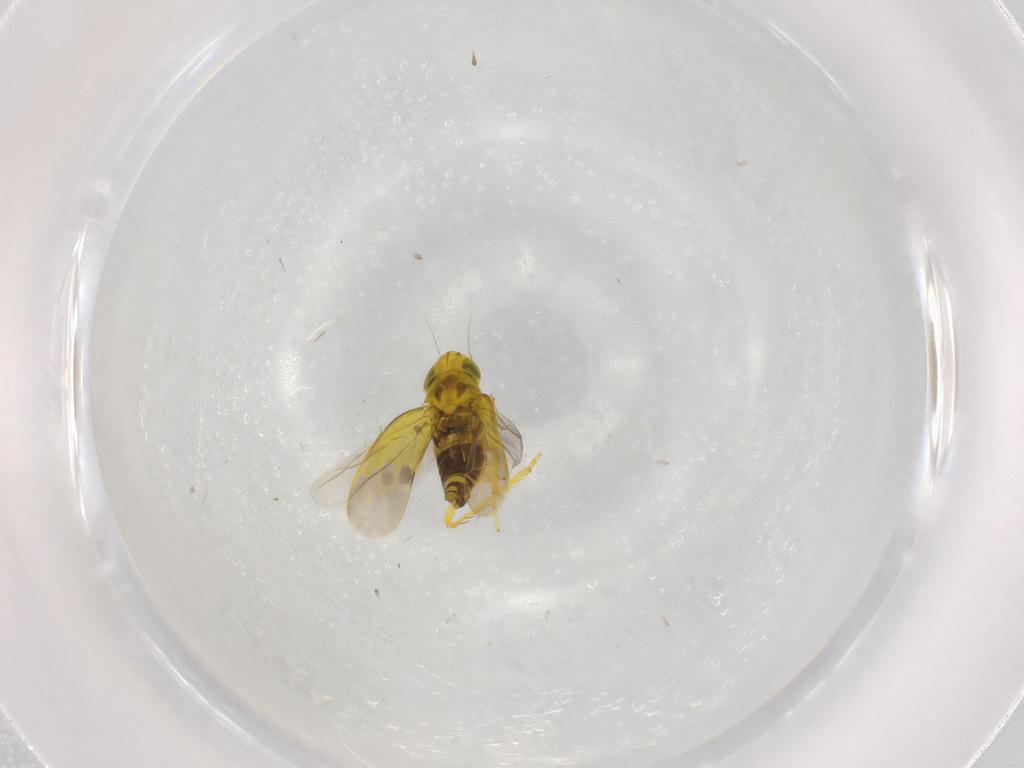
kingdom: Animalia
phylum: Arthropoda
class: Insecta
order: Hemiptera
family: Cicadellidae
